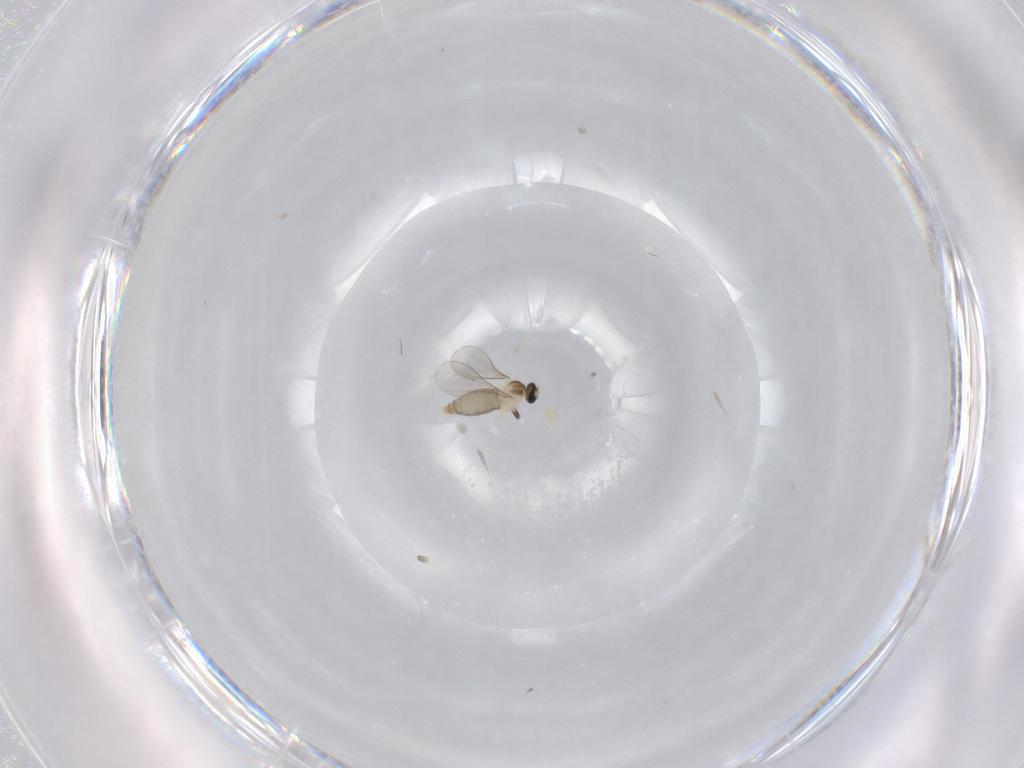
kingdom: Animalia
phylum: Arthropoda
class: Insecta
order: Diptera
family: Cecidomyiidae
